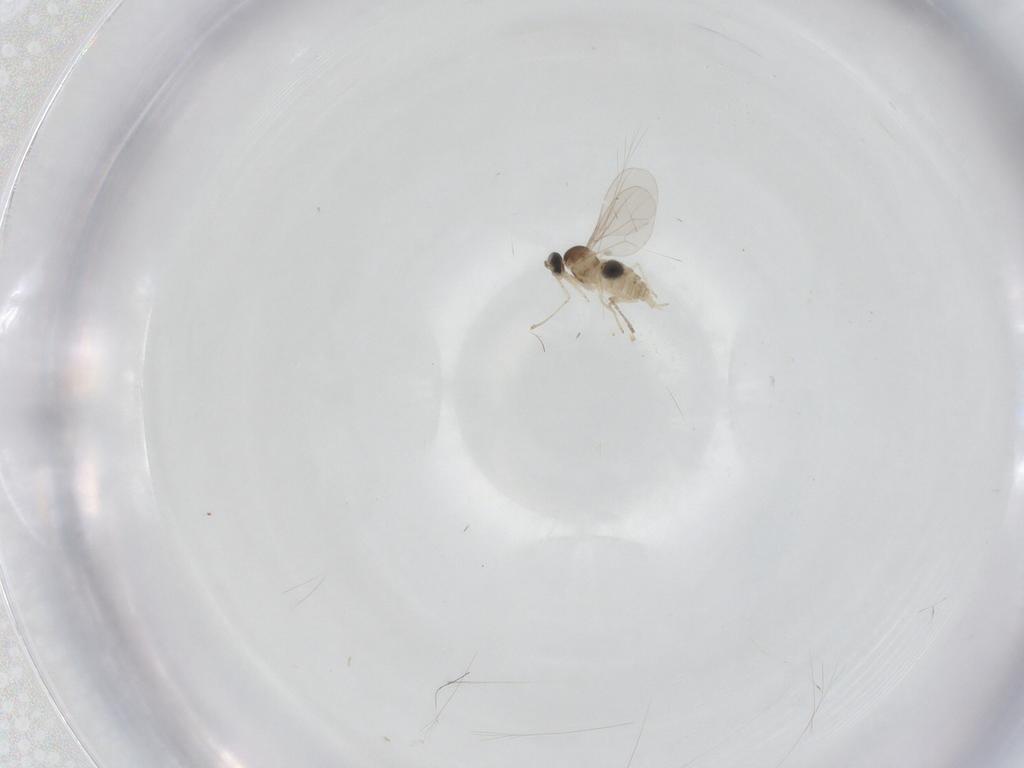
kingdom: Animalia
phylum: Arthropoda
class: Insecta
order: Diptera
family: Cecidomyiidae
